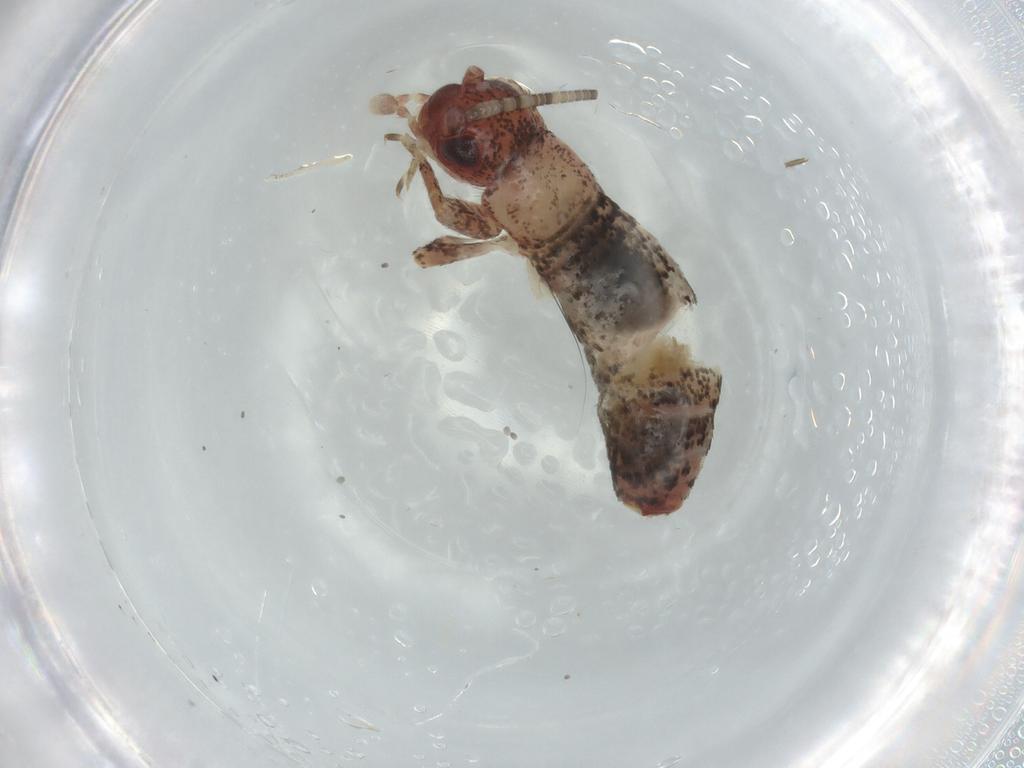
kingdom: Animalia
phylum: Arthropoda
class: Insecta
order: Orthoptera
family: Mogoplistidae
